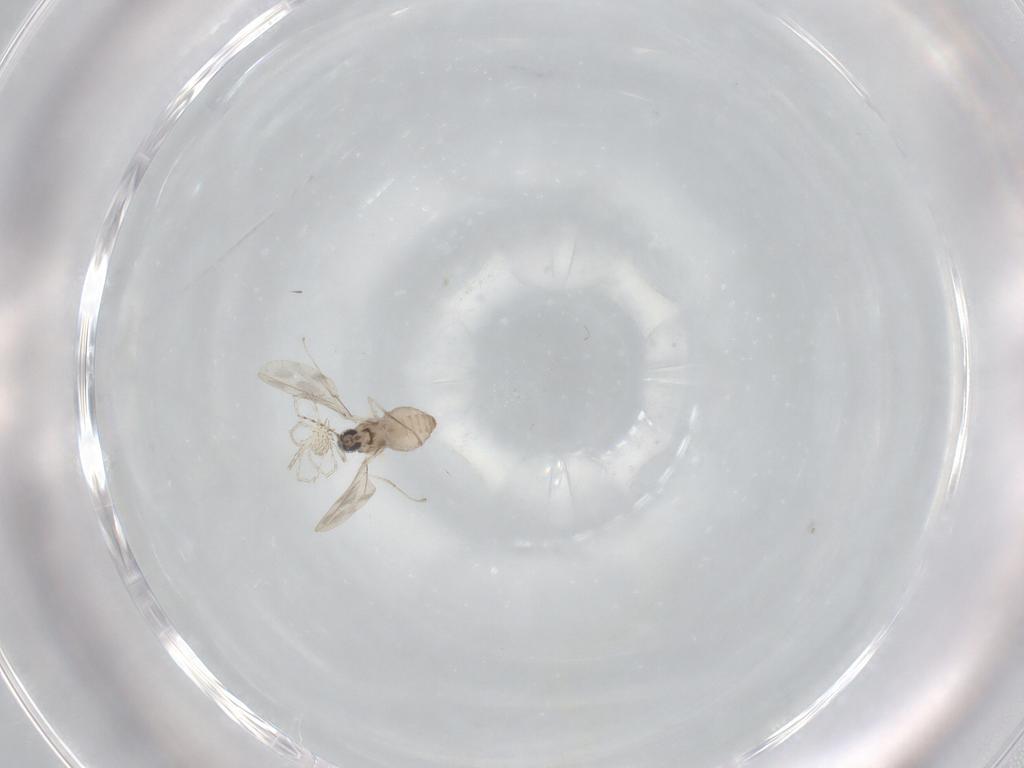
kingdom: Animalia
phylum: Arthropoda
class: Insecta
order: Diptera
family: Cecidomyiidae
